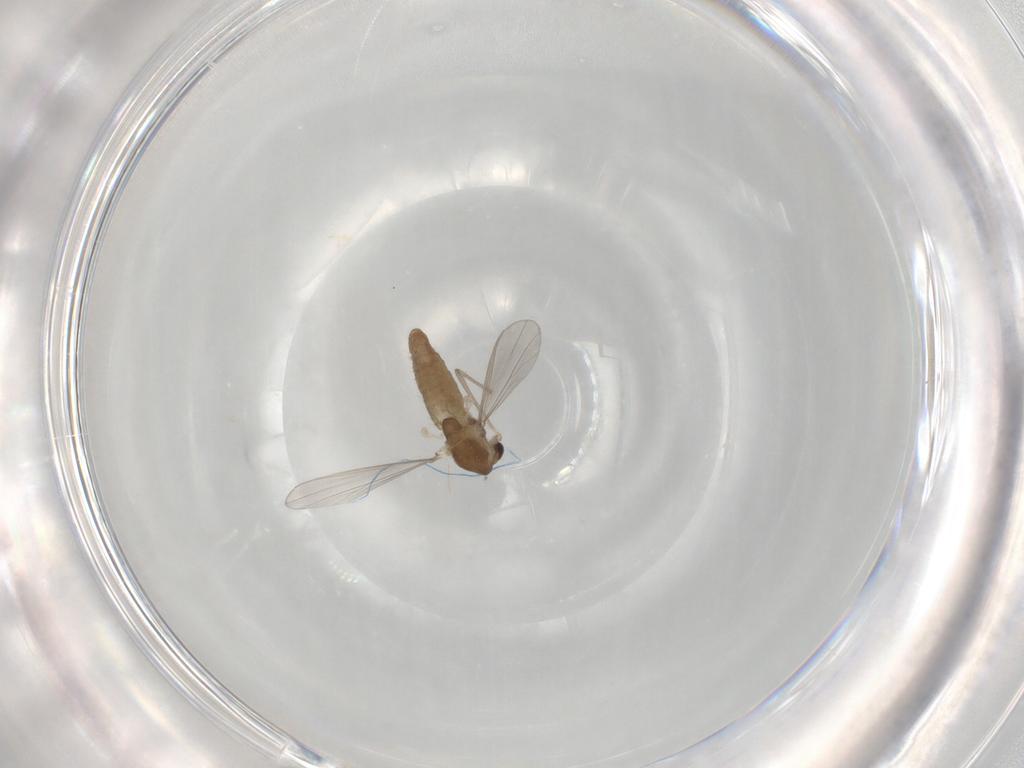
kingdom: Animalia
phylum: Arthropoda
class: Insecta
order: Diptera
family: Chironomidae
